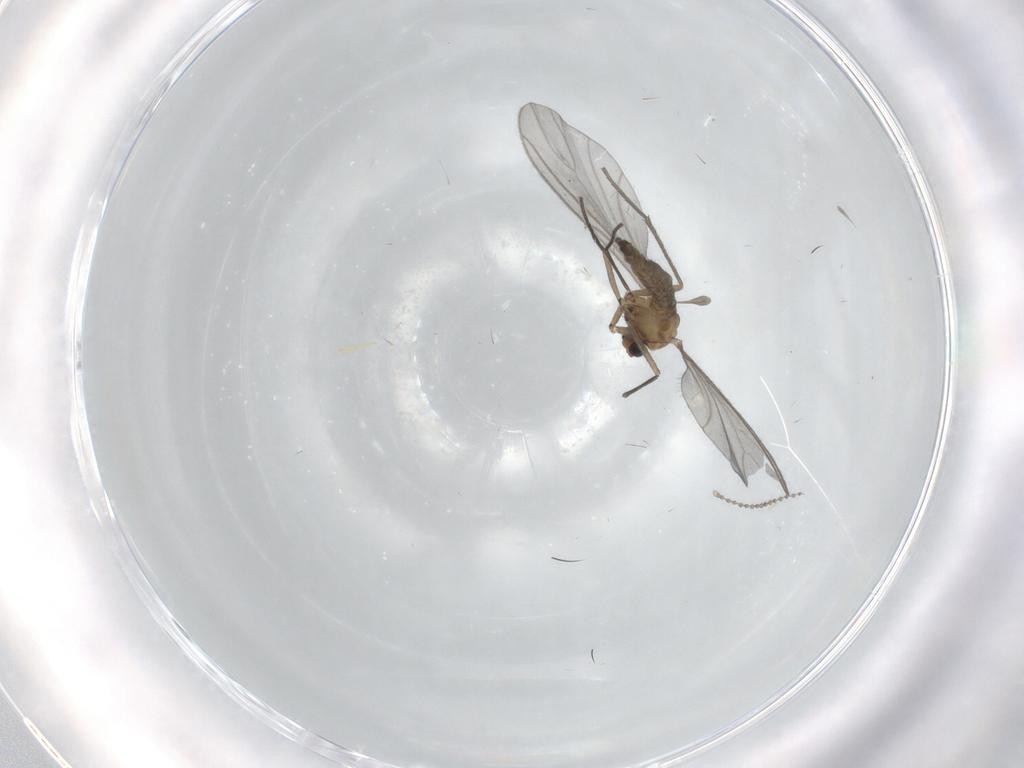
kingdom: Animalia
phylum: Arthropoda
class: Insecta
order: Diptera
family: Sciaridae
